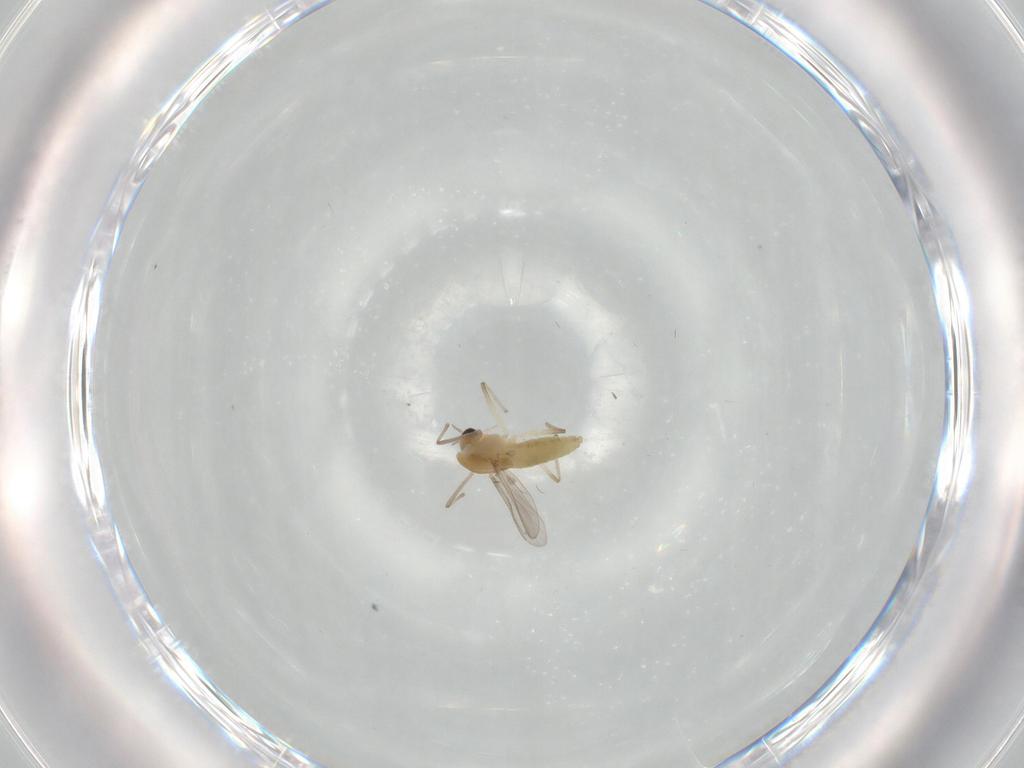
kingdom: Animalia
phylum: Arthropoda
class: Insecta
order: Diptera
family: Chironomidae
